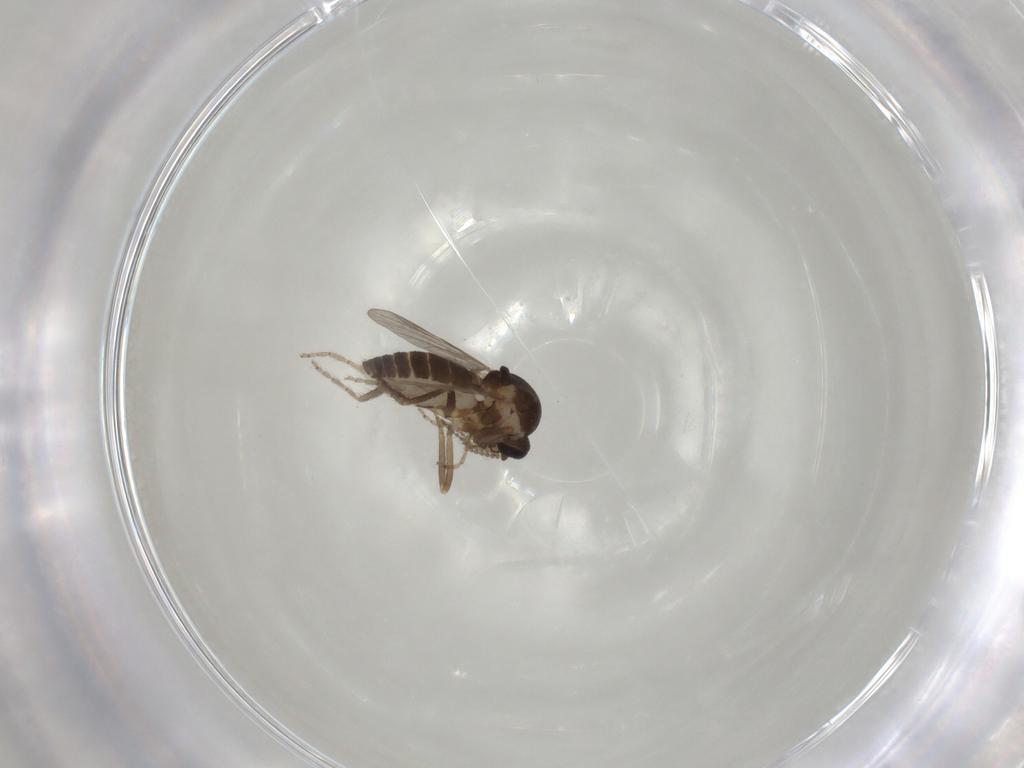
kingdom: Animalia
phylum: Arthropoda
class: Insecta
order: Diptera
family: Ceratopogonidae
